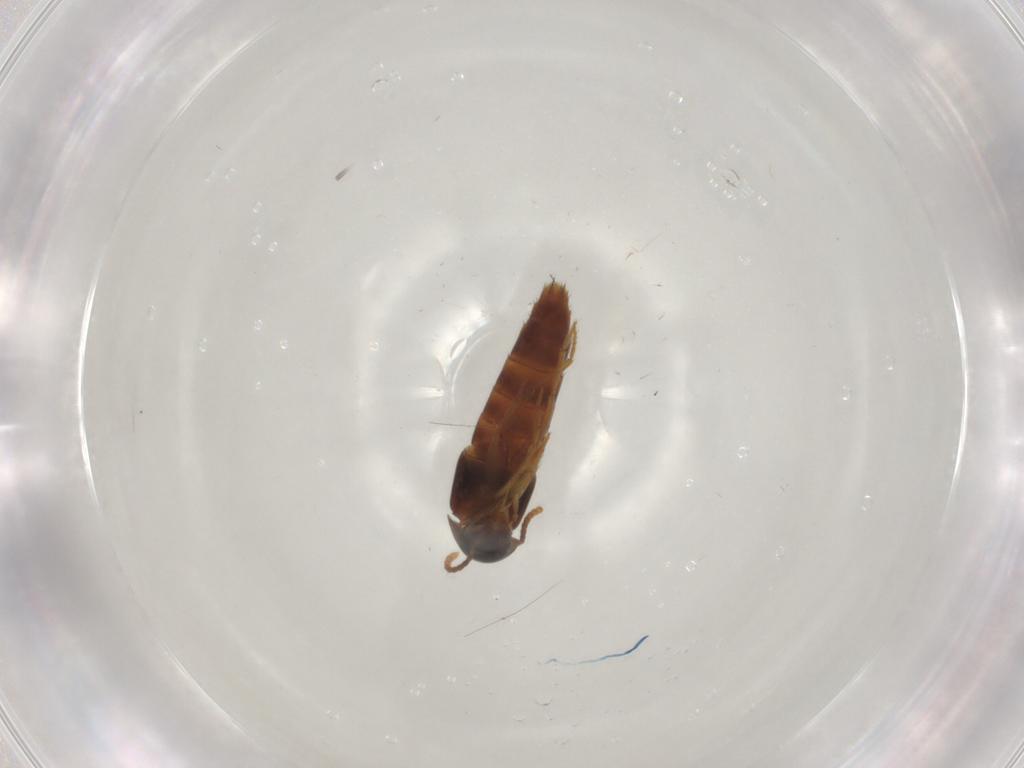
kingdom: Animalia
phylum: Arthropoda
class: Insecta
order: Coleoptera
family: Staphylinidae
